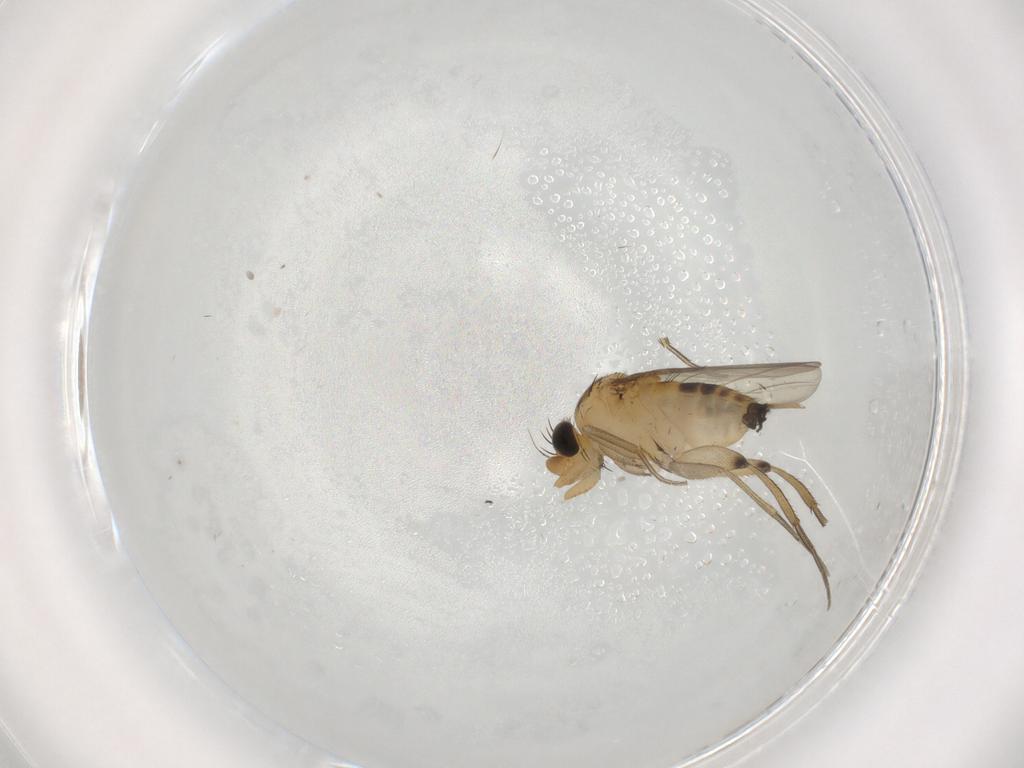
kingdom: Animalia
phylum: Arthropoda
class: Insecta
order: Diptera
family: Phoridae
